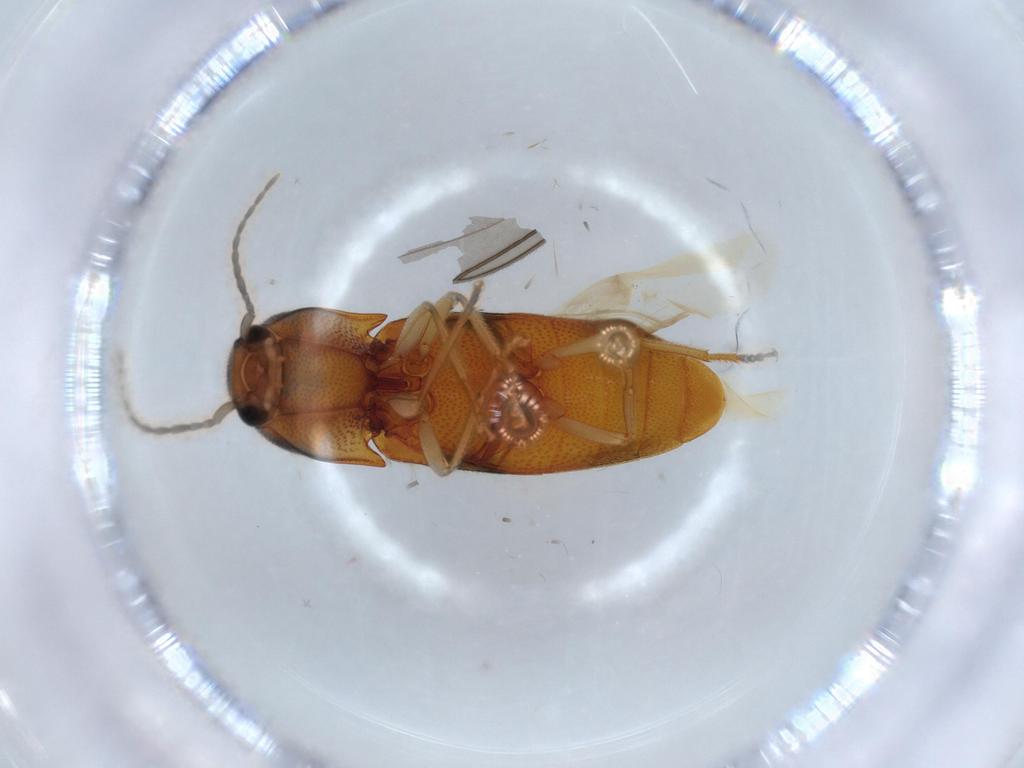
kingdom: Animalia
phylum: Arthropoda
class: Insecta
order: Coleoptera
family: Elateridae
